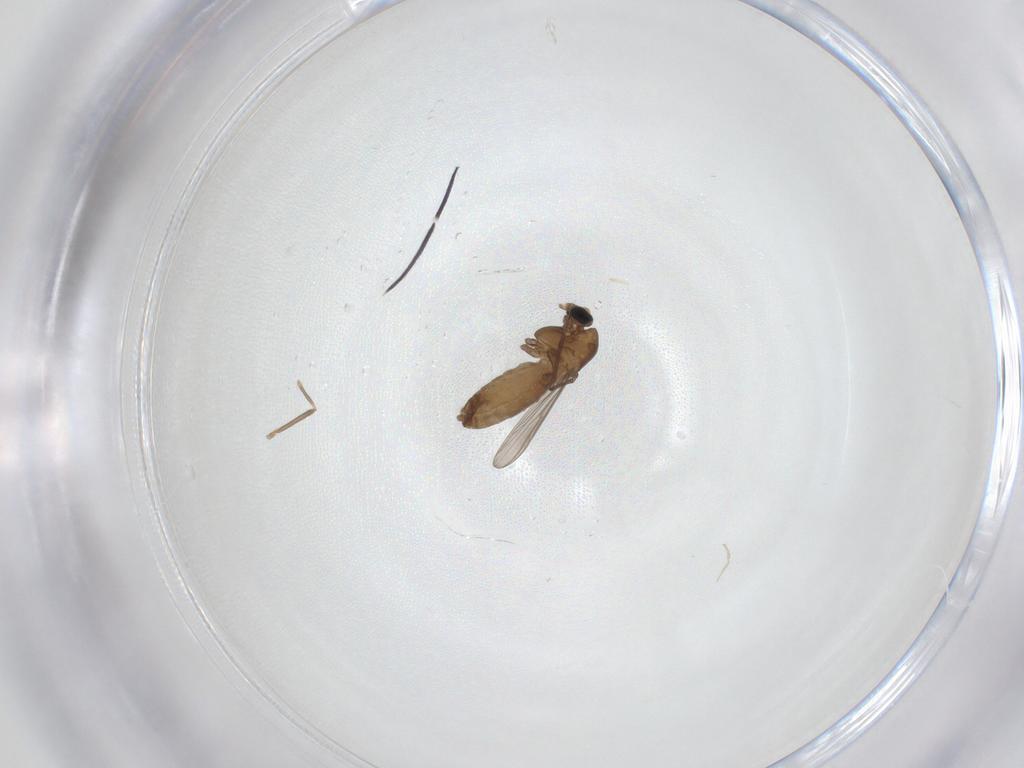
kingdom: Animalia
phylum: Arthropoda
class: Insecta
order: Diptera
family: Chironomidae
